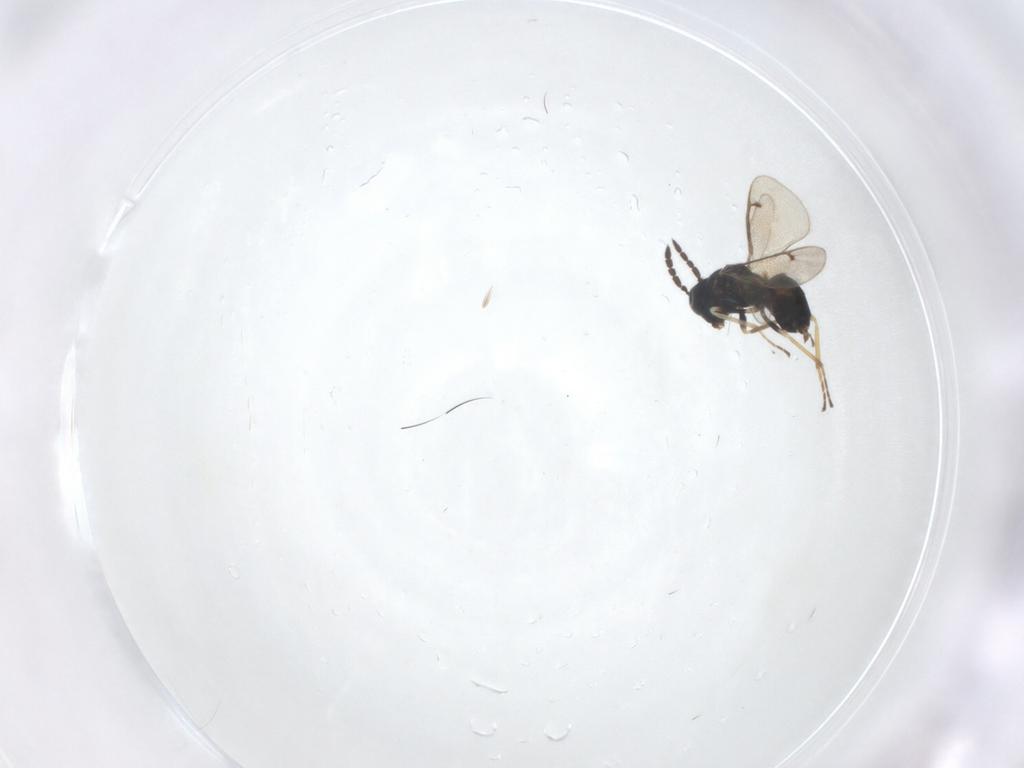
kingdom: Animalia
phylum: Arthropoda
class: Insecta
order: Hymenoptera
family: Eulophidae
